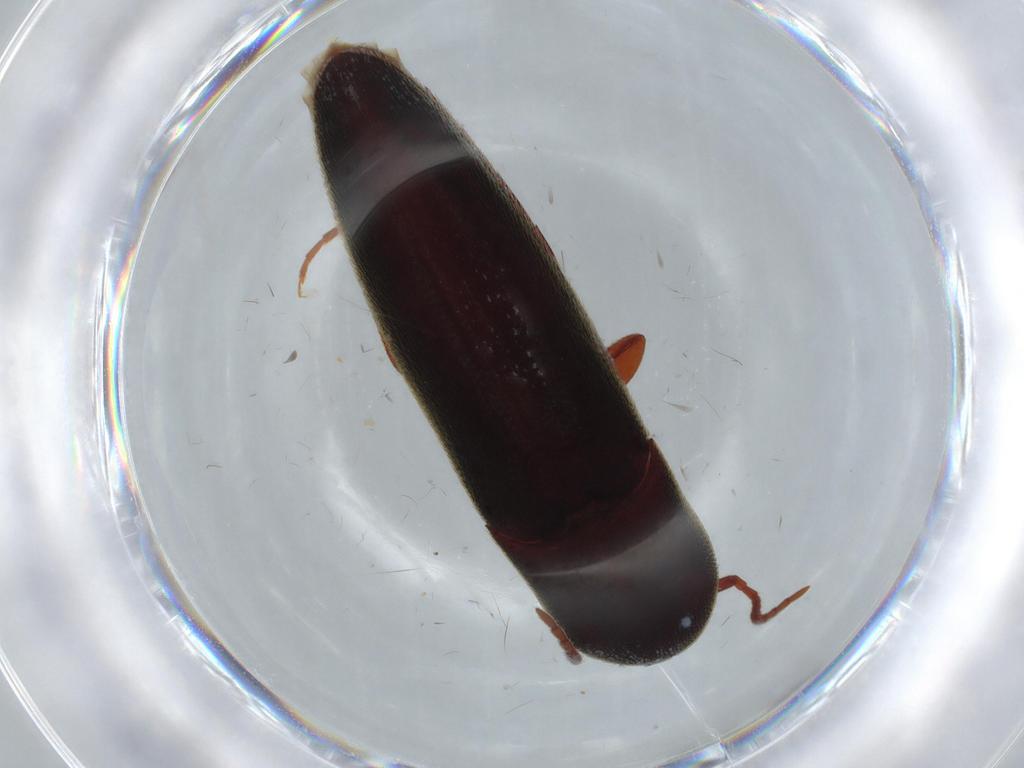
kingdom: Animalia
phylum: Arthropoda
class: Insecta
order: Coleoptera
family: Eucnemidae
